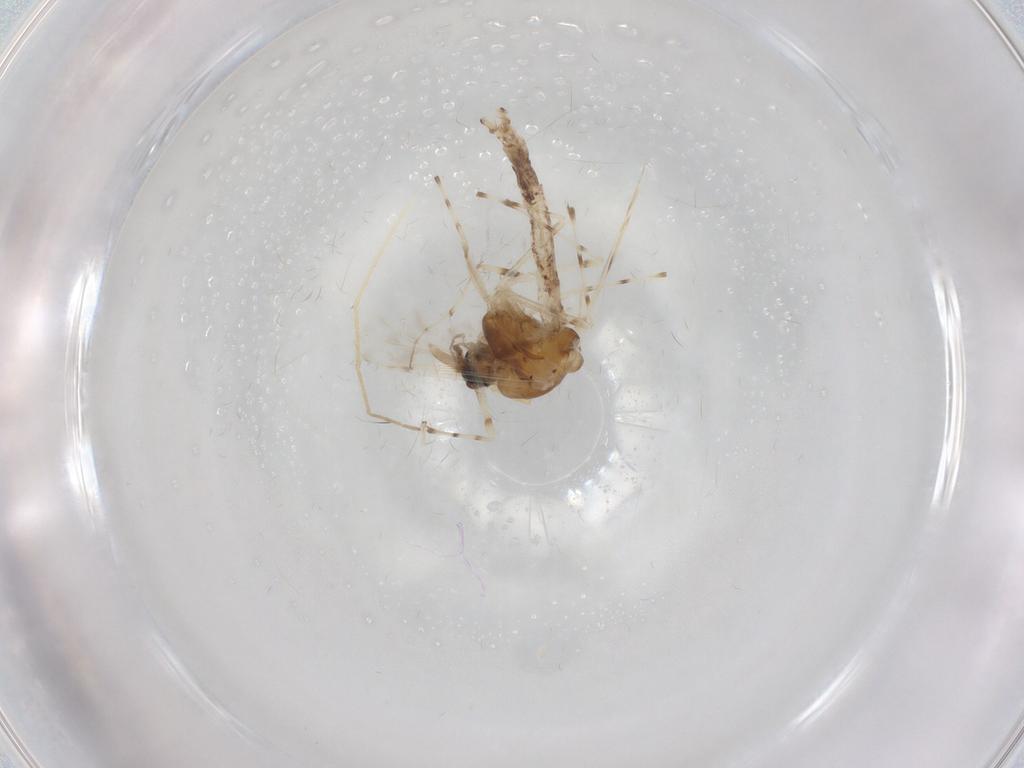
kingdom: Animalia
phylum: Arthropoda
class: Insecta
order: Diptera
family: Chironomidae
